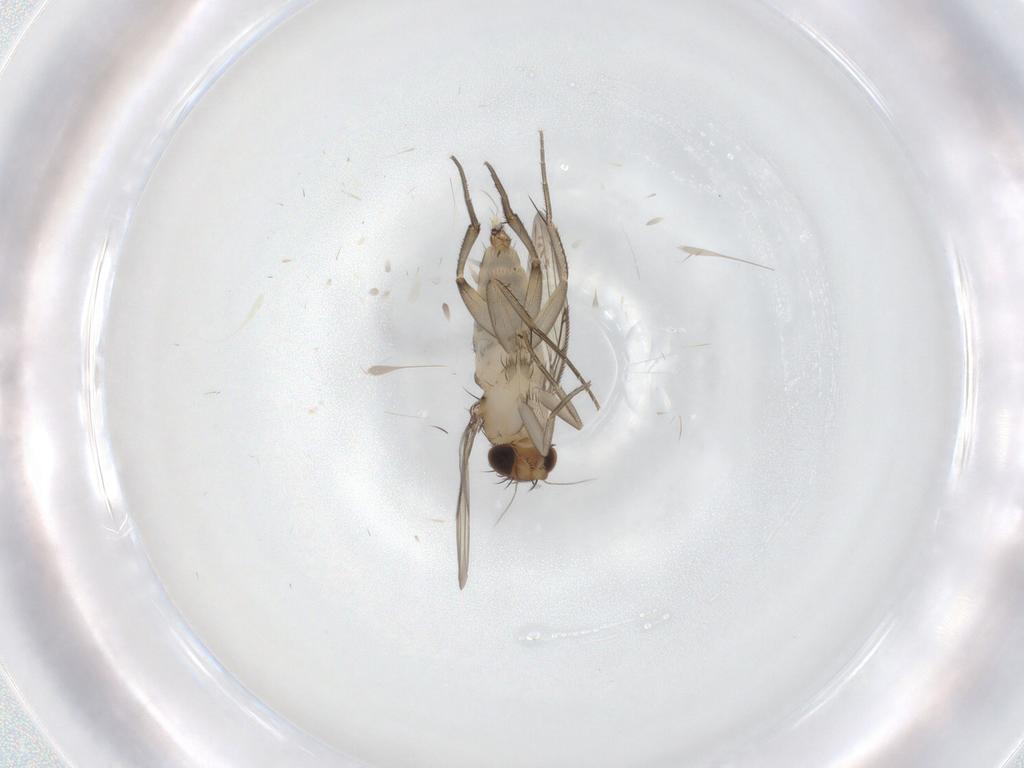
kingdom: Animalia
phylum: Arthropoda
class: Insecta
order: Diptera
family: Phoridae
